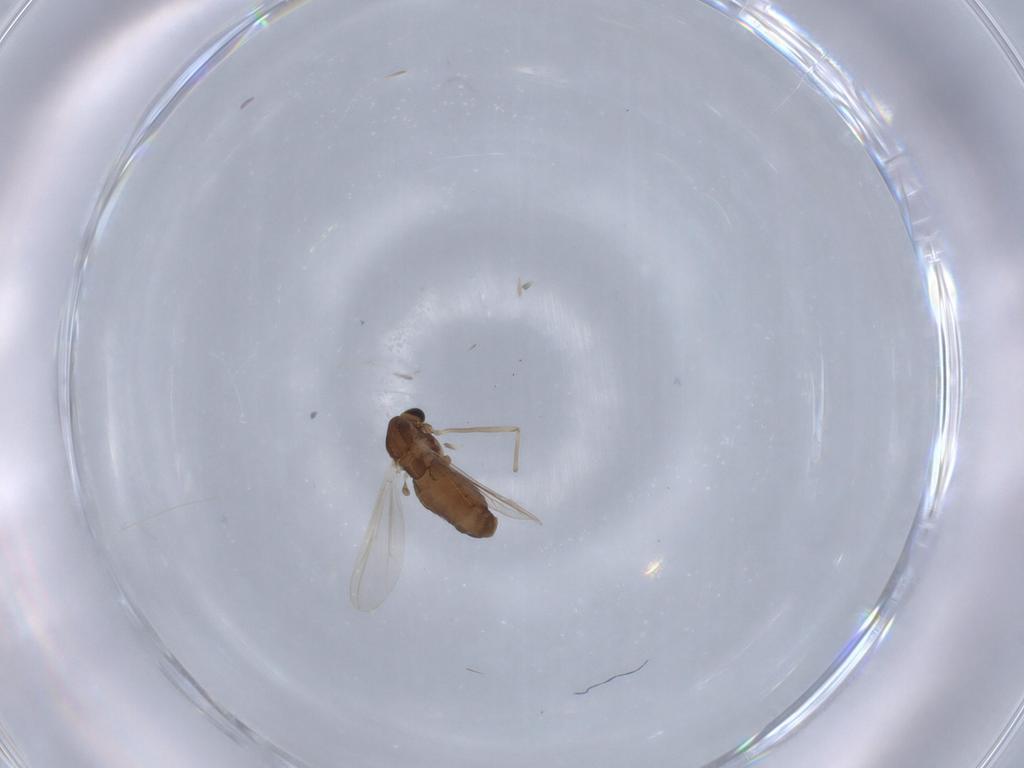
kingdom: Animalia
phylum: Arthropoda
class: Insecta
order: Diptera
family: Chironomidae
